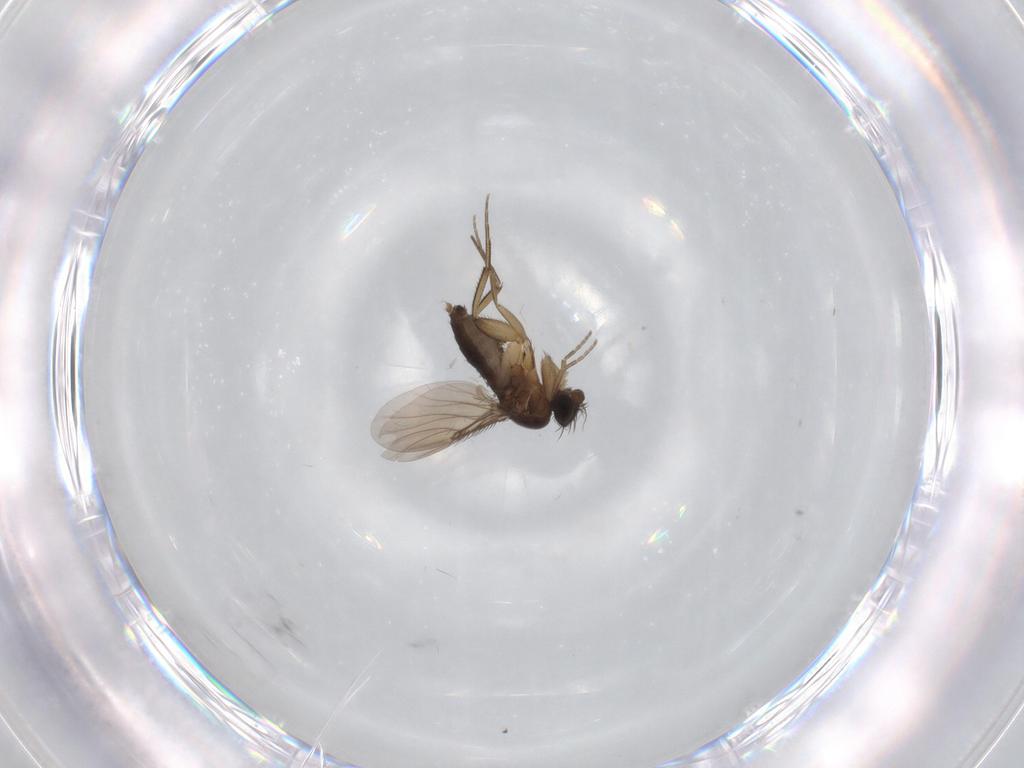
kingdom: Animalia
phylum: Arthropoda
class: Insecta
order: Diptera
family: Phoridae
